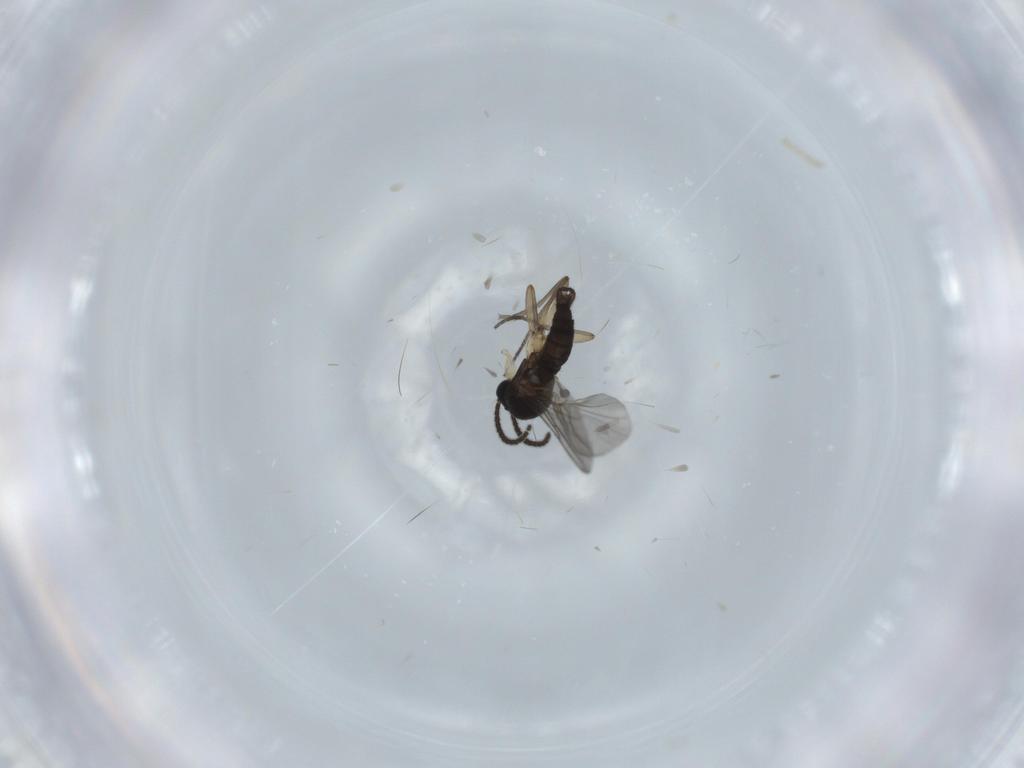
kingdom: Animalia
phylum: Arthropoda
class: Insecta
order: Diptera
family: Sciaridae
